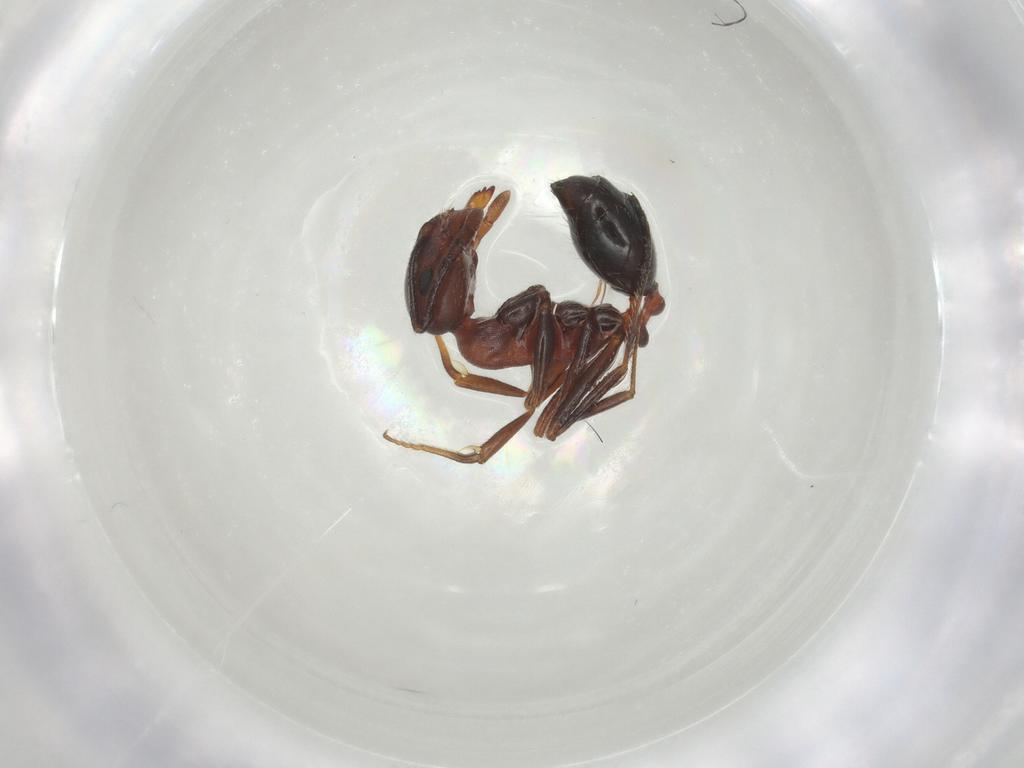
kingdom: Animalia
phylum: Arthropoda
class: Insecta
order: Hymenoptera
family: Formicidae
